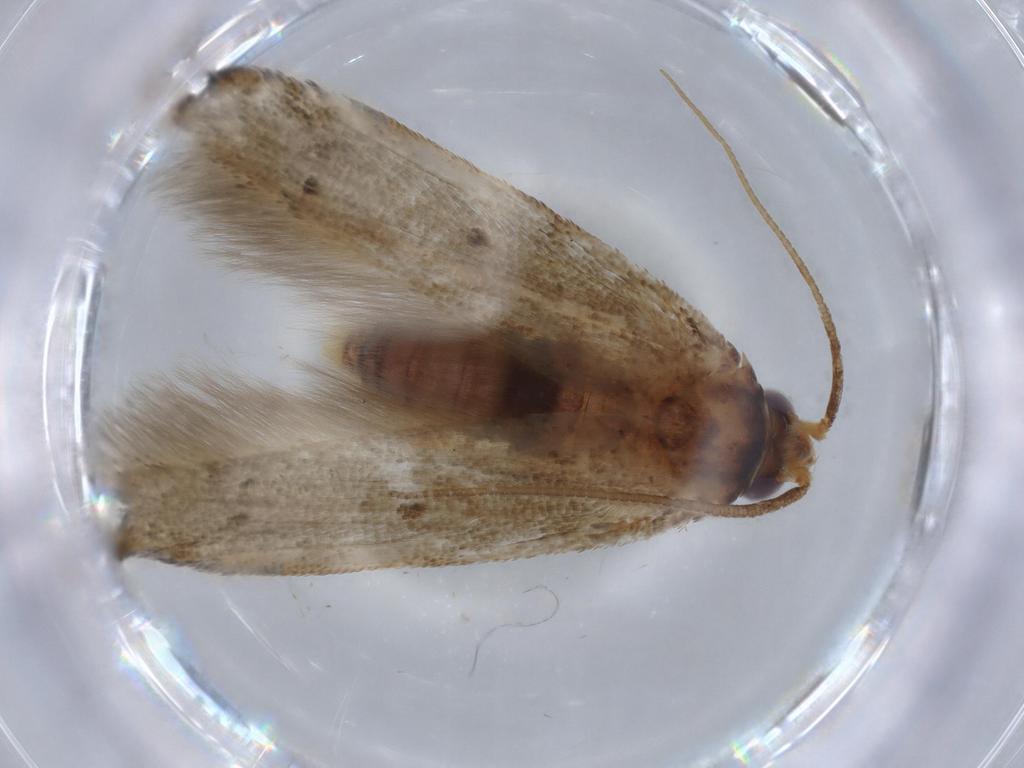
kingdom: Animalia
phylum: Arthropoda
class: Insecta
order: Lepidoptera
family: Blastobasidae
